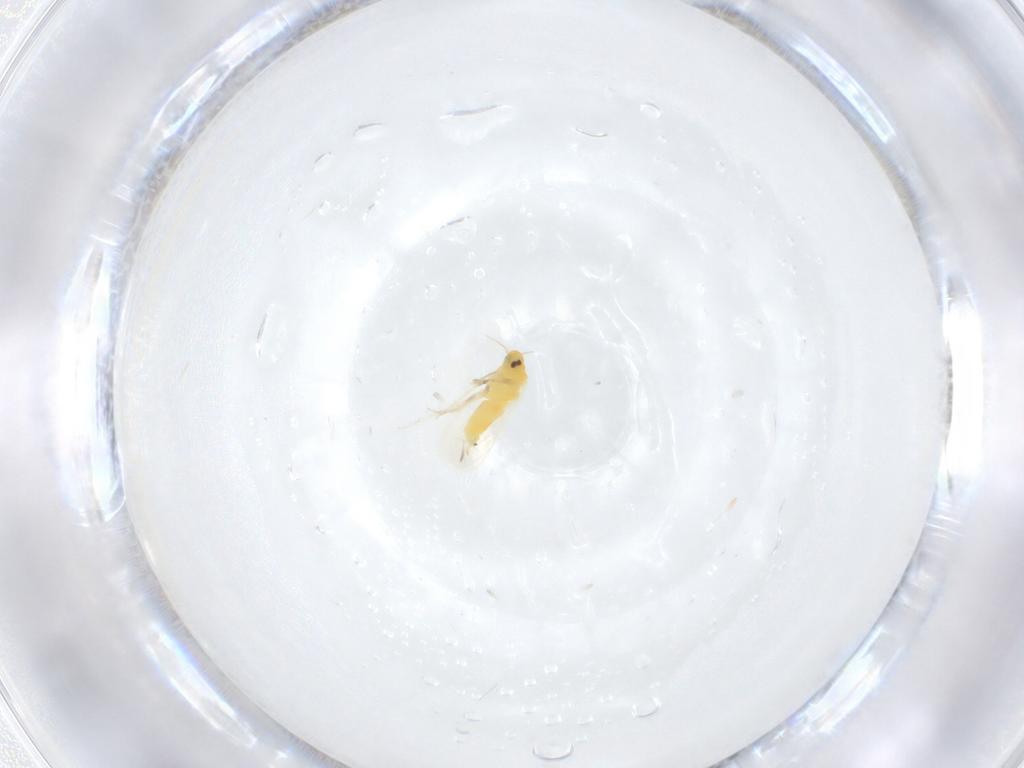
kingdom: Animalia
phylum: Arthropoda
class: Insecta
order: Hemiptera
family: Aleyrodidae
